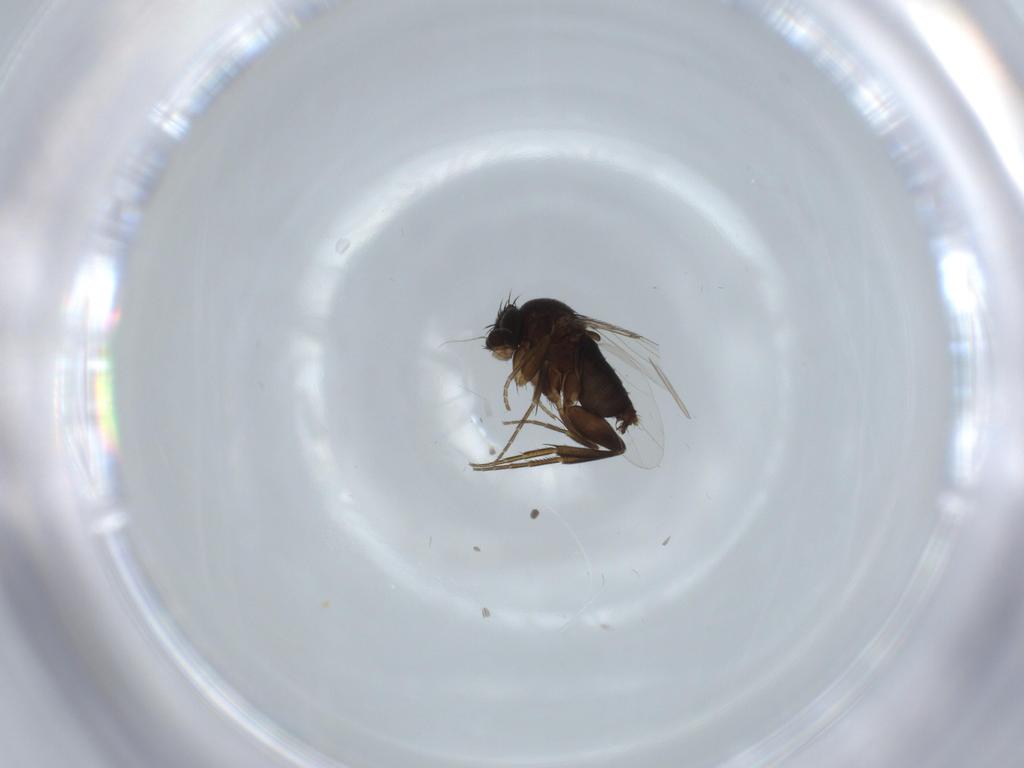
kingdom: Animalia
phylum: Arthropoda
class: Insecta
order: Diptera
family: Phoridae
